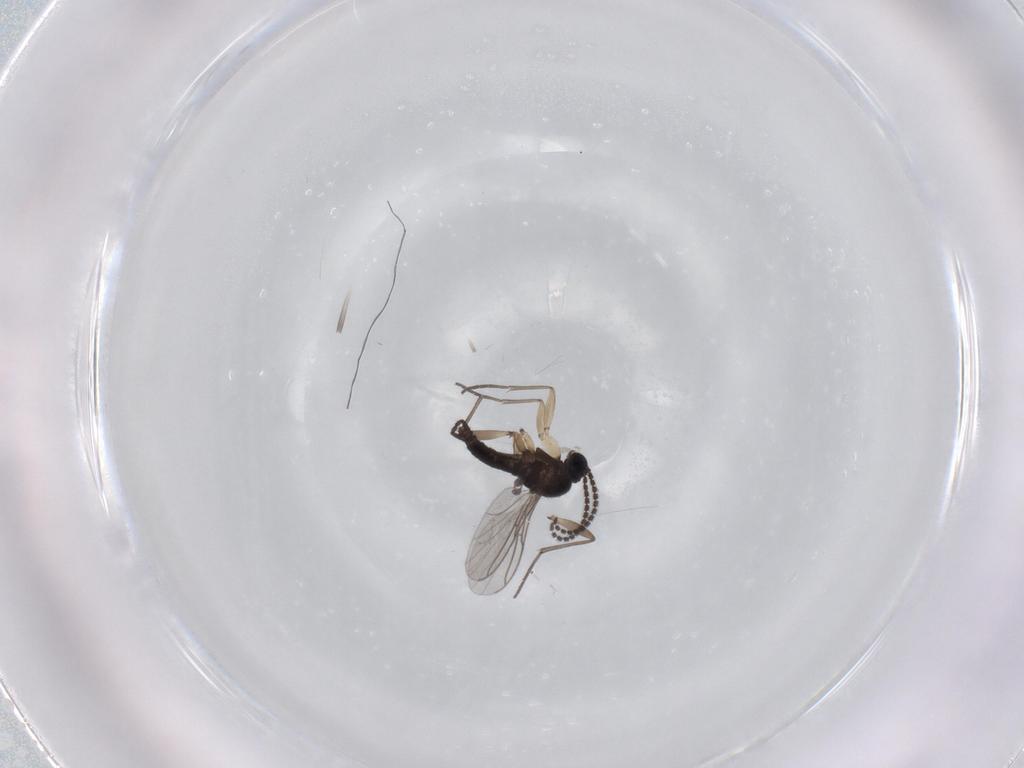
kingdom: Animalia
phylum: Arthropoda
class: Insecta
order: Diptera
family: Sciaridae
